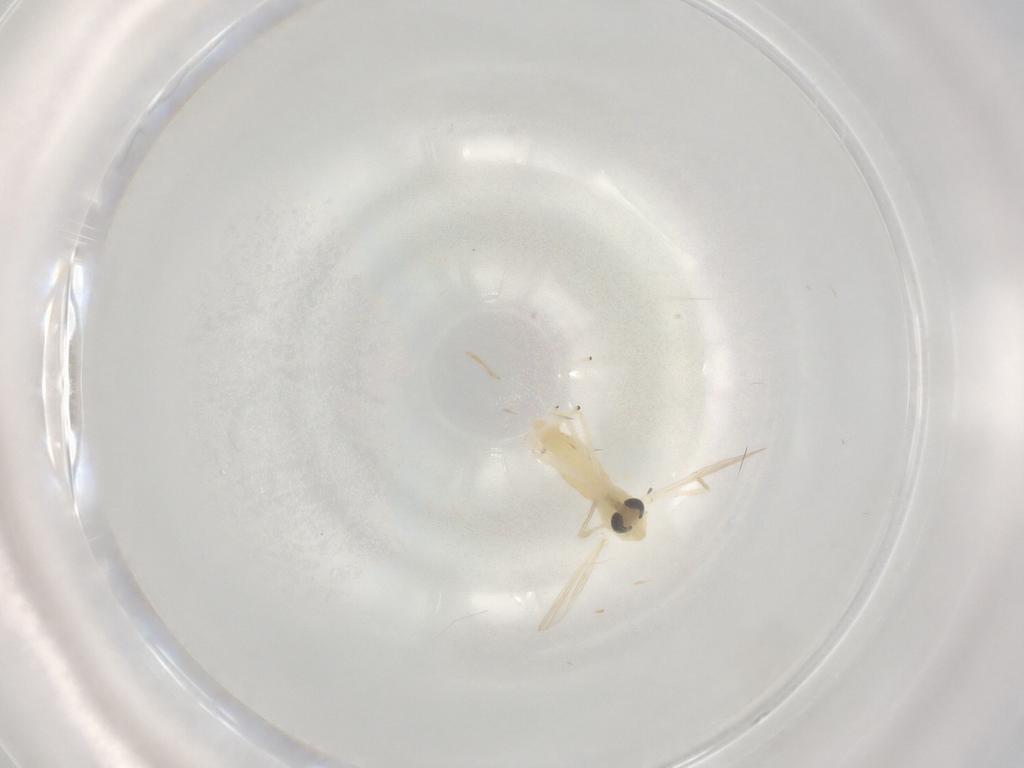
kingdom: Animalia
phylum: Arthropoda
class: Insecta
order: Diptera
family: Chironomidae
